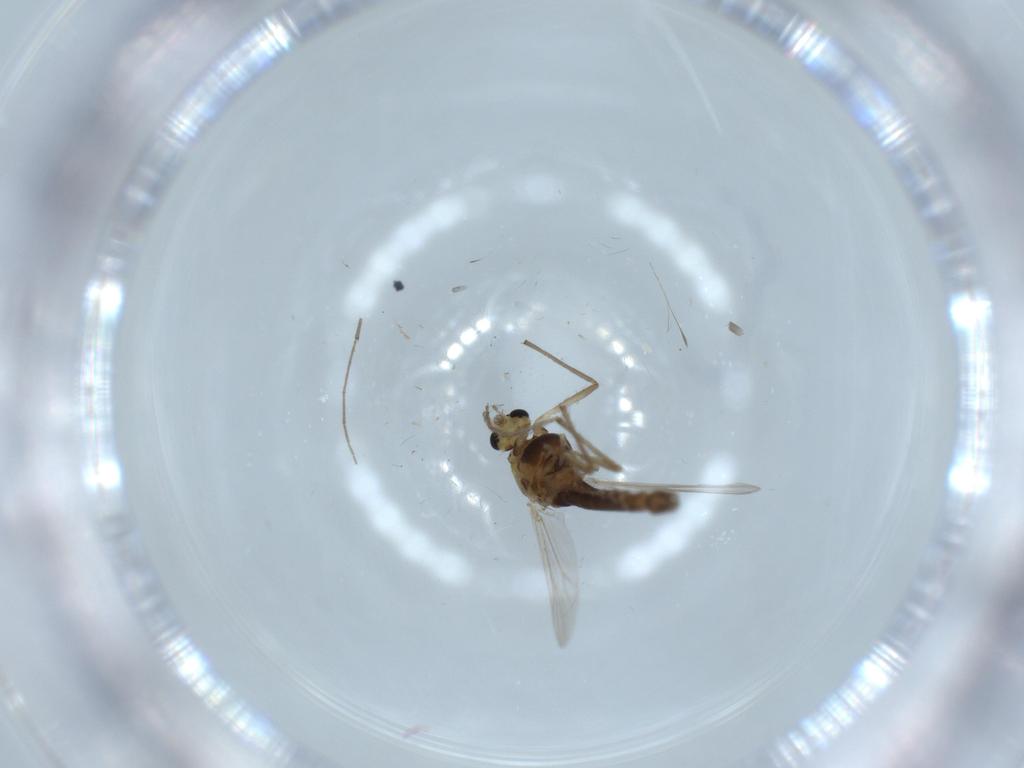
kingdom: Animalia
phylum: Arthropoda
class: Insecta
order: Diptera
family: Chironomidae
